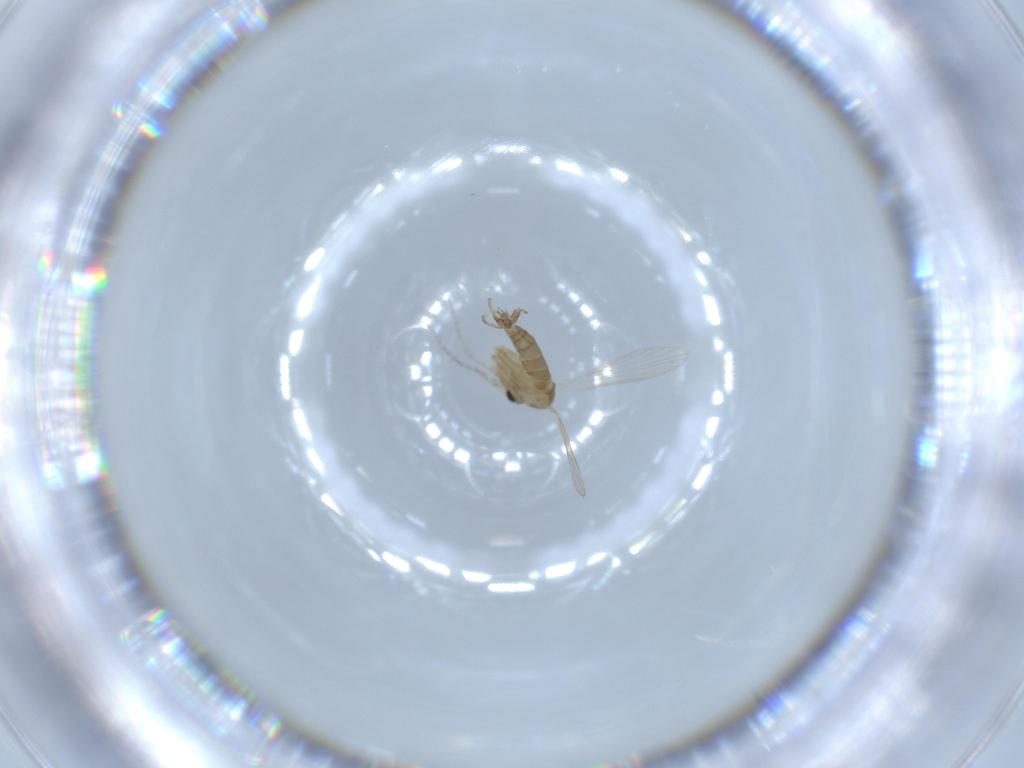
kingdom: Animalia
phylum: Arthropoda
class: Insecta
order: Diptera
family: Psychodidae
